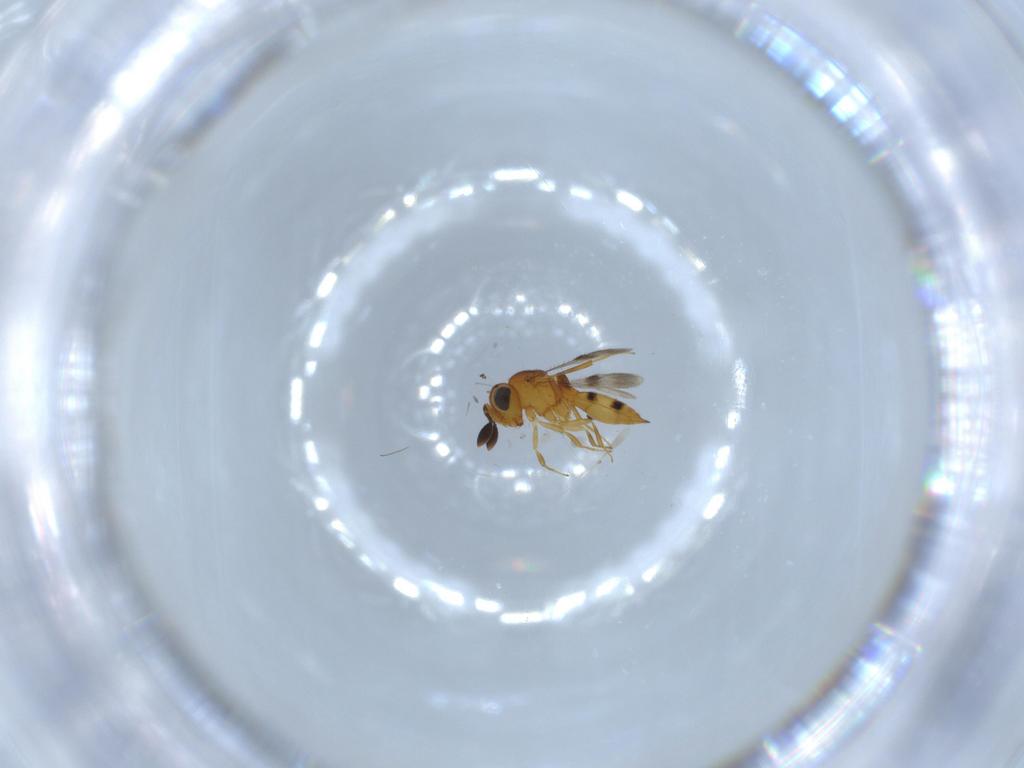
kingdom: Animalia
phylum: Arthropoda
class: Insecta
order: Hymenoptera
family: Scelionidae
